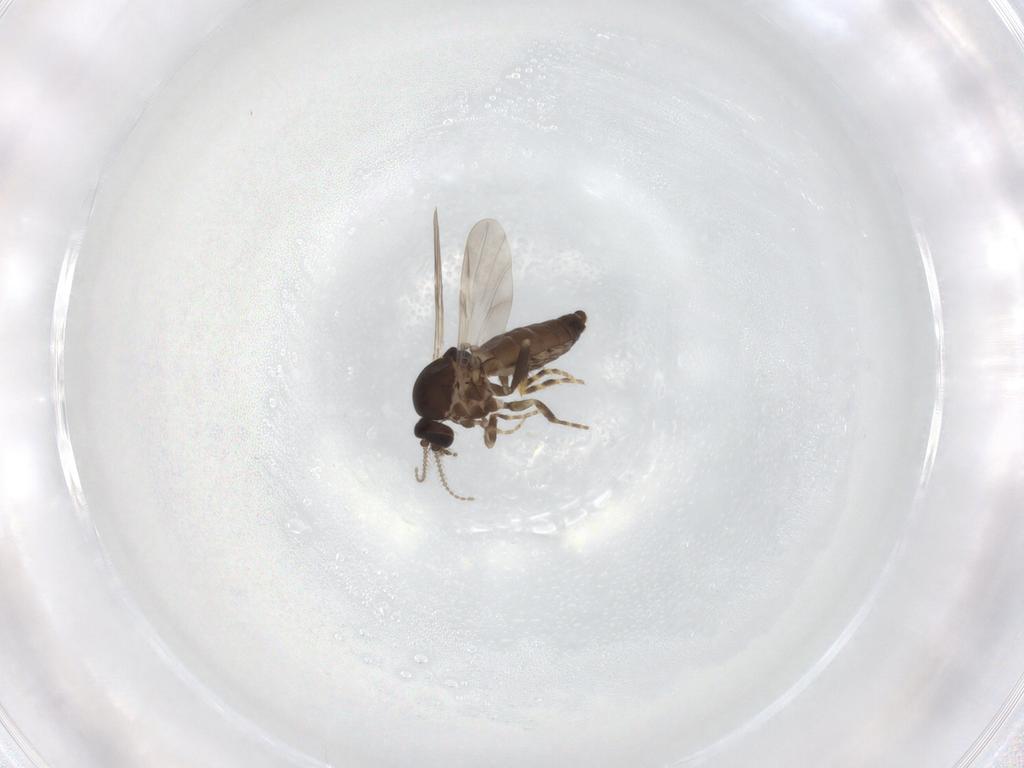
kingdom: Animalia
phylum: Arthropoda
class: Insecta
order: Diptera
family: Ceratopogonidae
